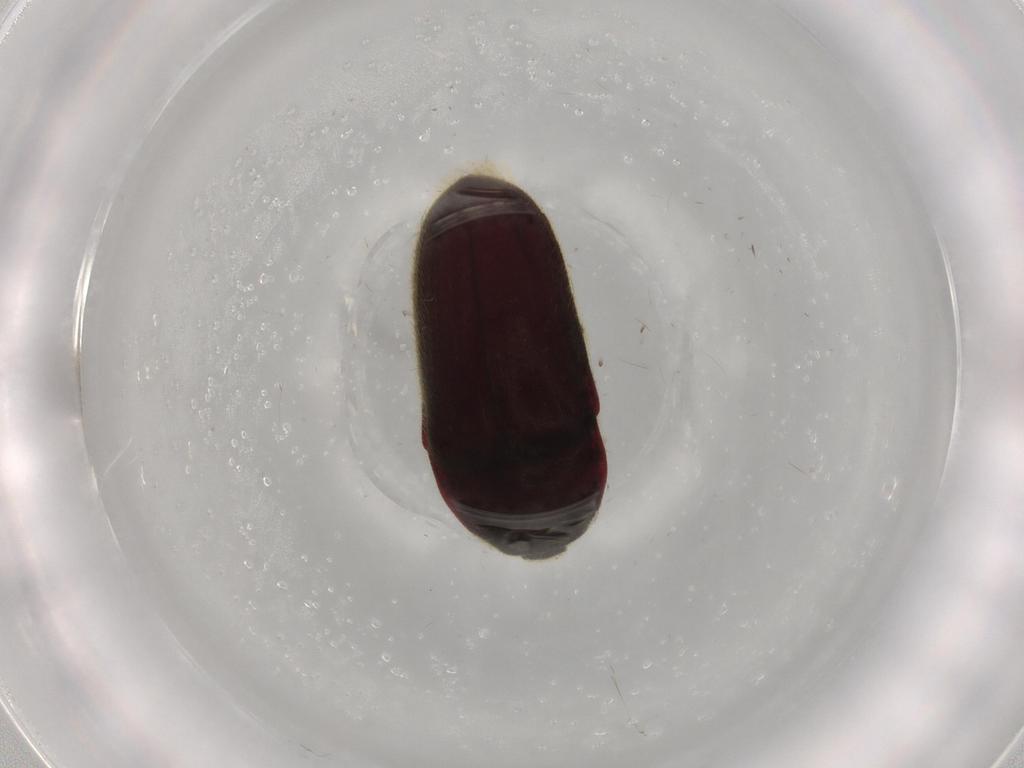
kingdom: Animalia
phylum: Arthropoda
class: Insecta
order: Coleoptera
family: Throscidae
